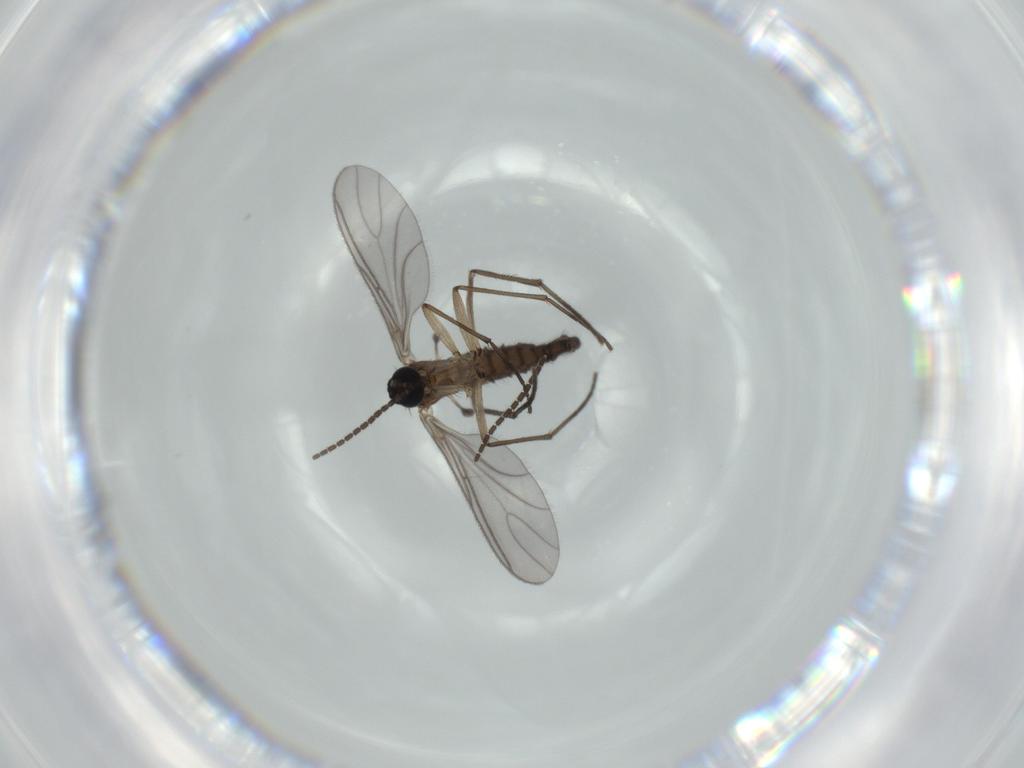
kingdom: Animalia
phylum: Arthropoda
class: Insecta
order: Diptera
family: Sciaridae
